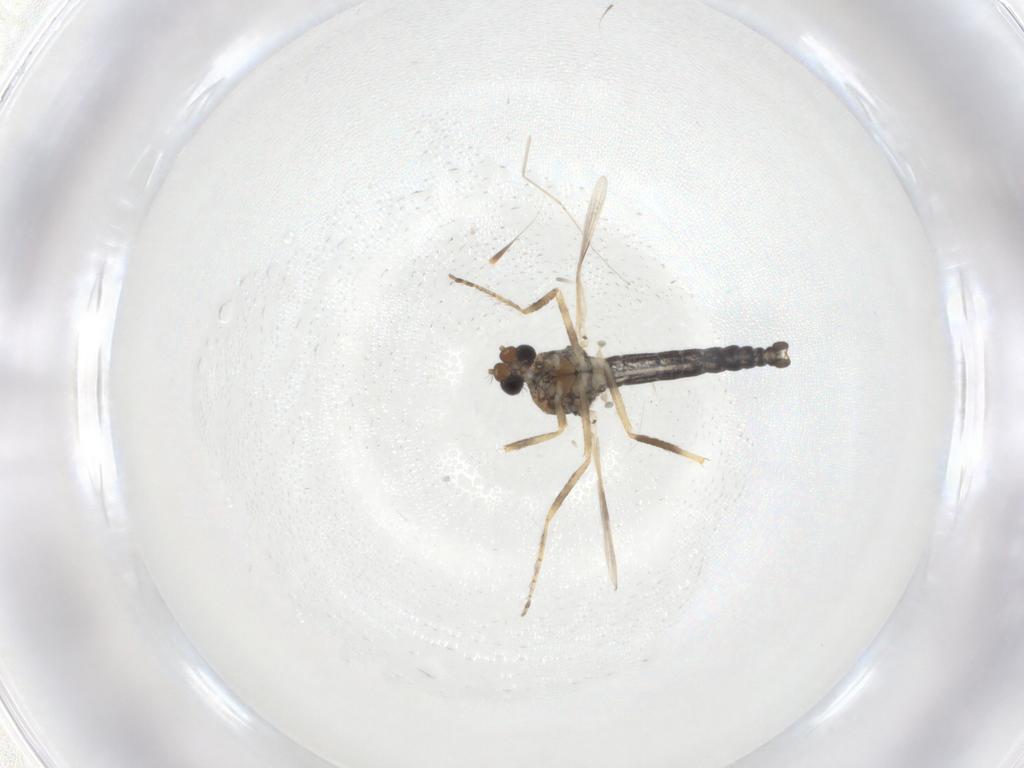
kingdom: Animalia
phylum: Arthropoda
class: Insecta
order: Diptera
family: Ceratopogonidae
